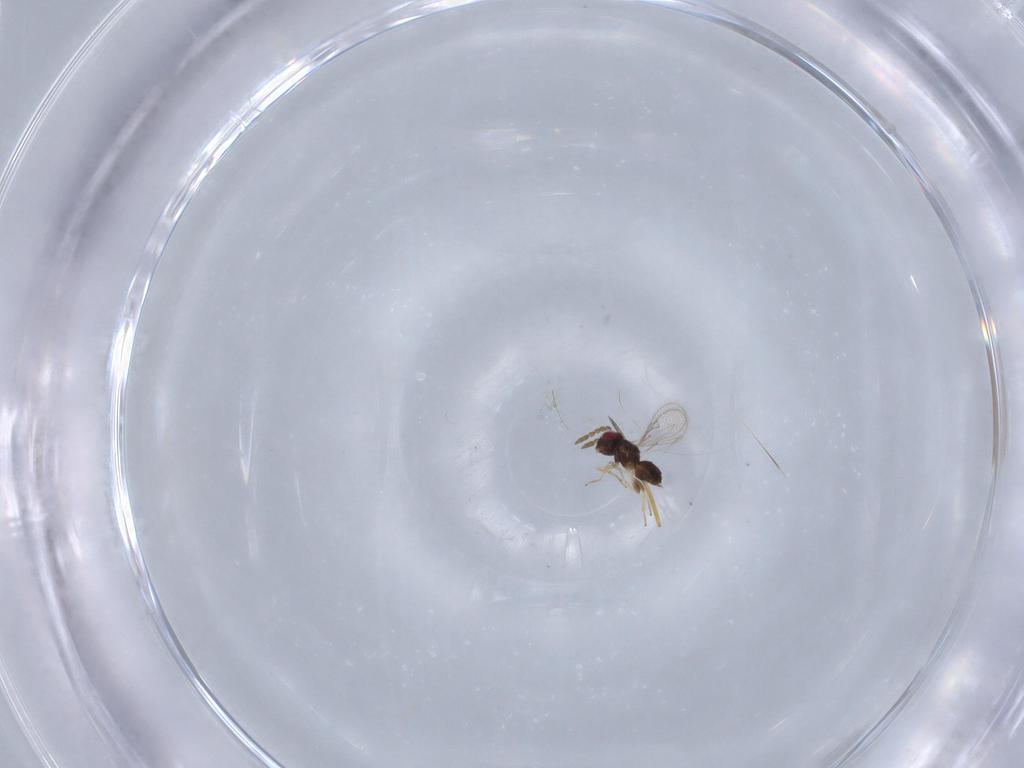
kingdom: Animalia
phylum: Arthropoda
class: Insecta
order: Hymenoptera
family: Eulophidae
